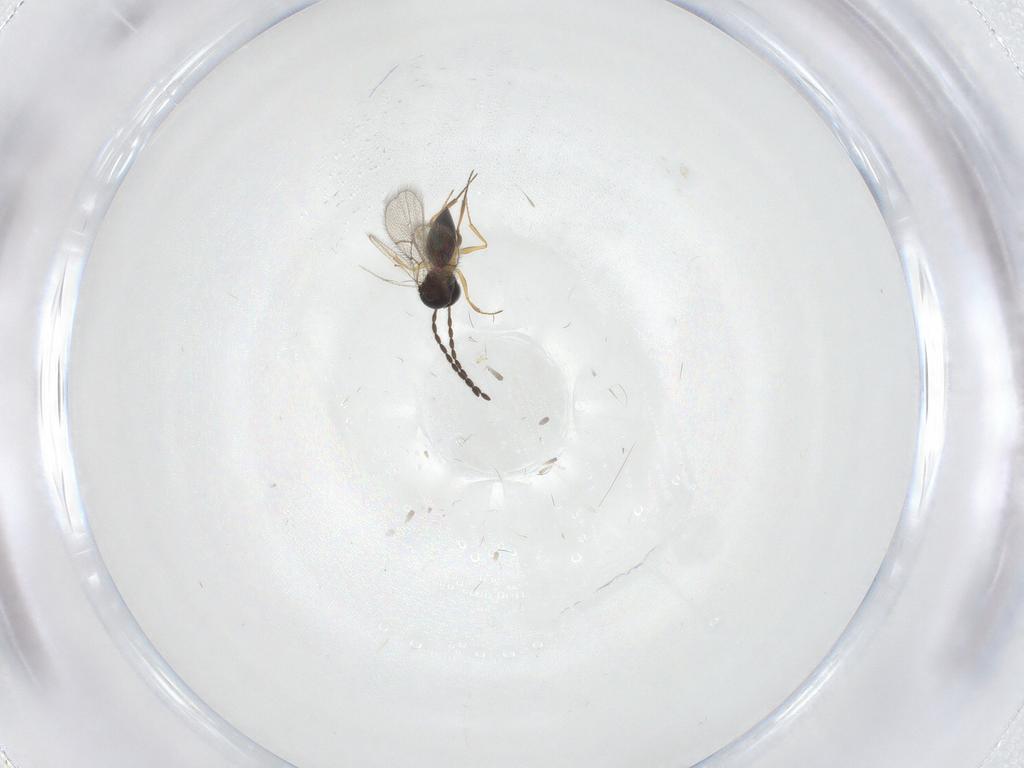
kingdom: Animalia
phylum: Arthropoda
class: Insecta
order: Hymenoptera
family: Figitidae
